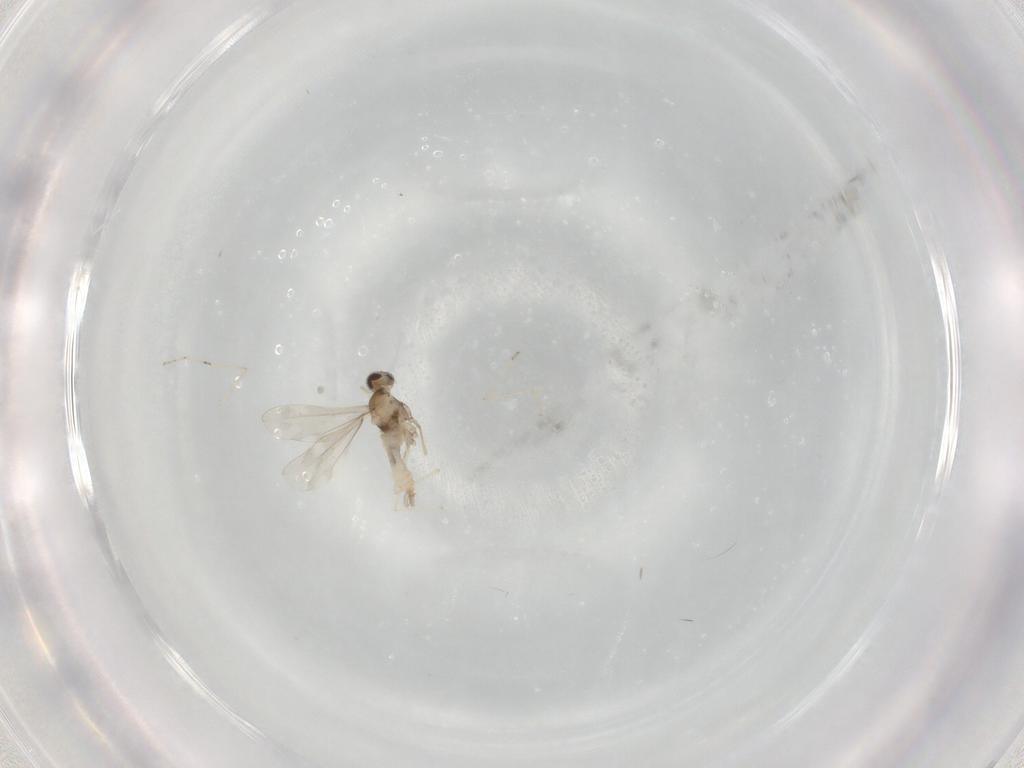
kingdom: Animalia
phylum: Arthropoda
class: Insecta
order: Diptera
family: Cecidomyiidae
